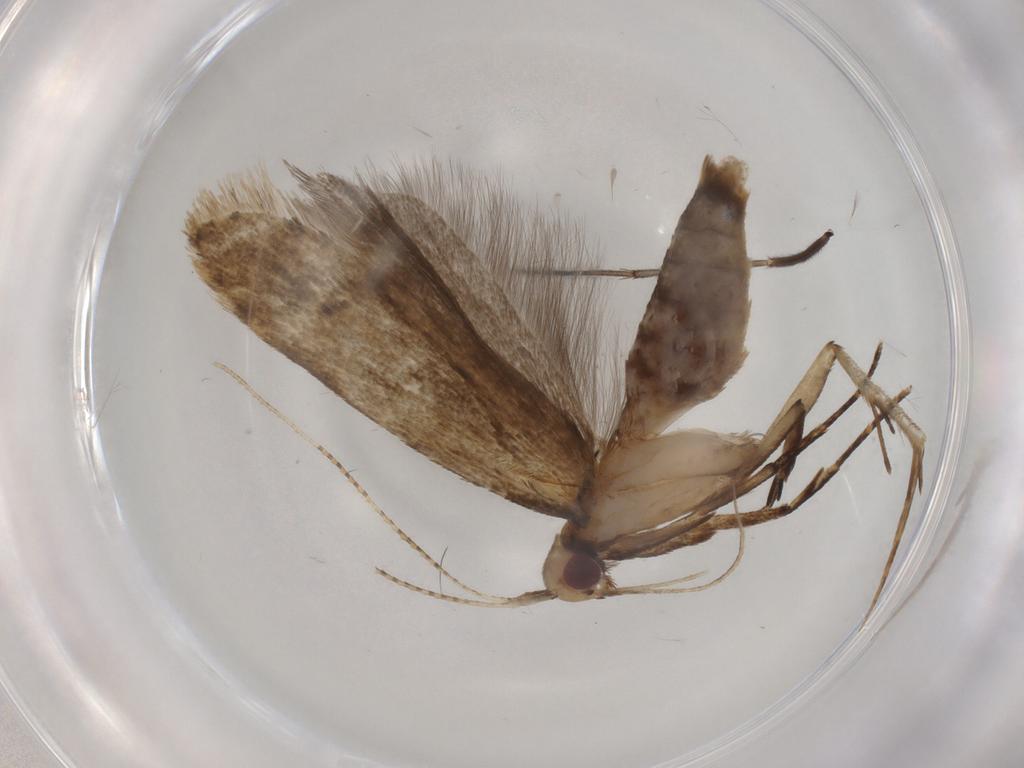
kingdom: Animalia
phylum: Arthropoda
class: Insecta
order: Lepidoptera
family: Gelechiidae
